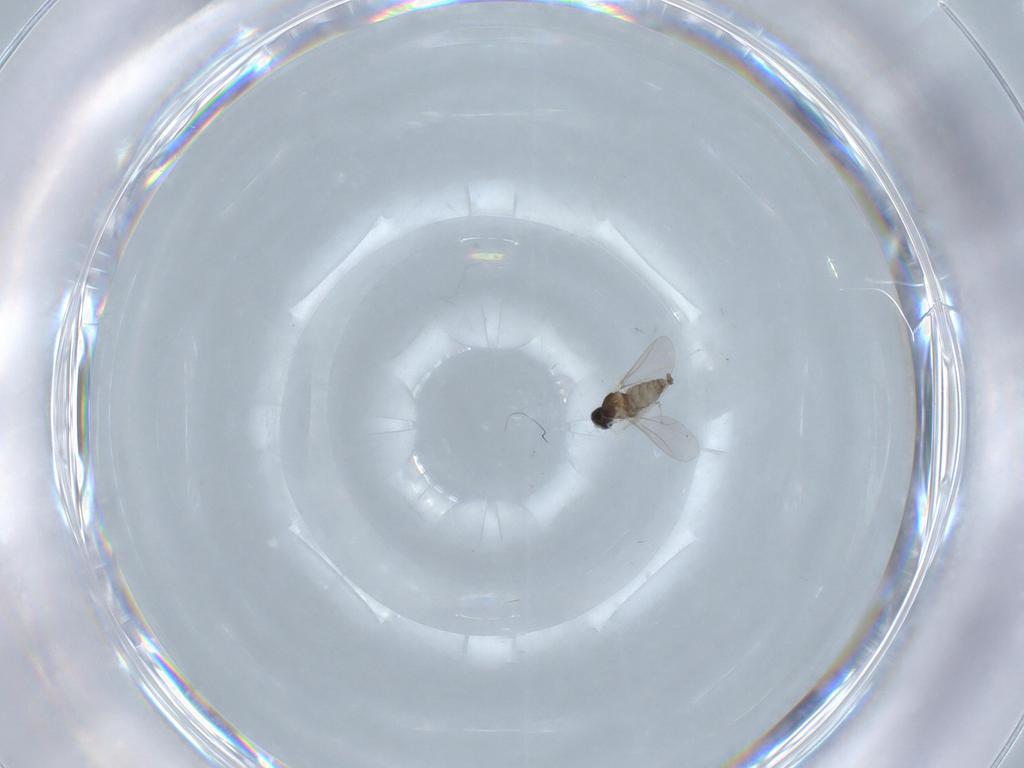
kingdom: Animalia
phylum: Arthropoda
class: Insecta
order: Diptera
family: Cecidomyiidae
